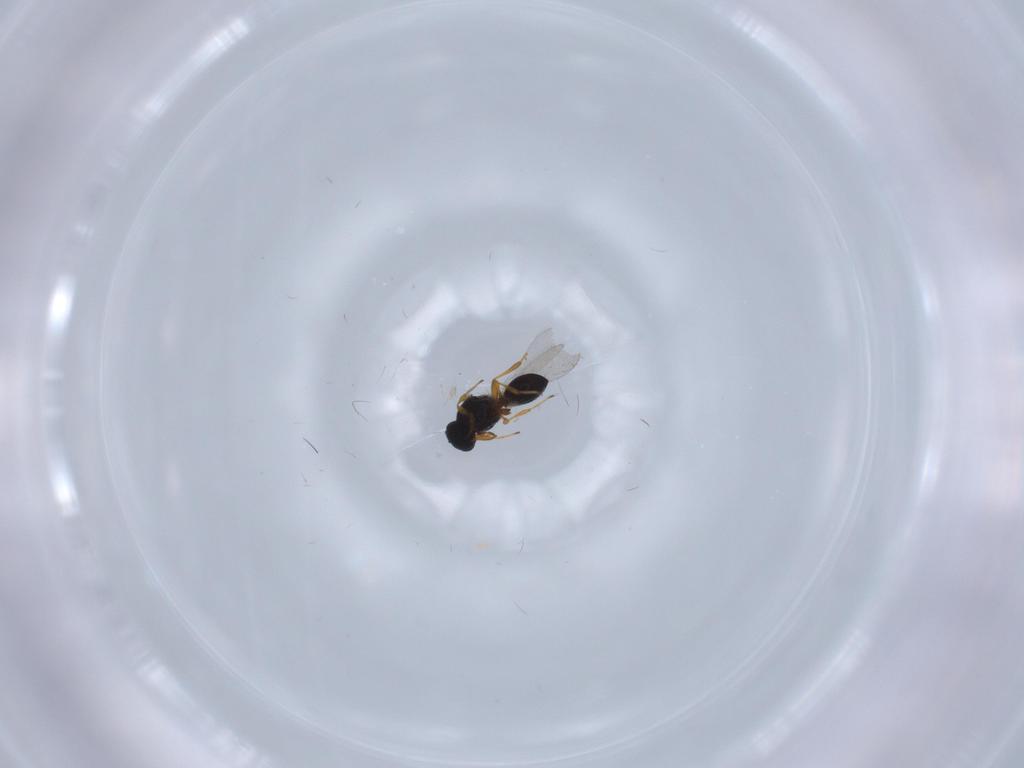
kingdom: Animalia
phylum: Arthropoda
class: Insecta
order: Hymenoptera
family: Platygastridae
